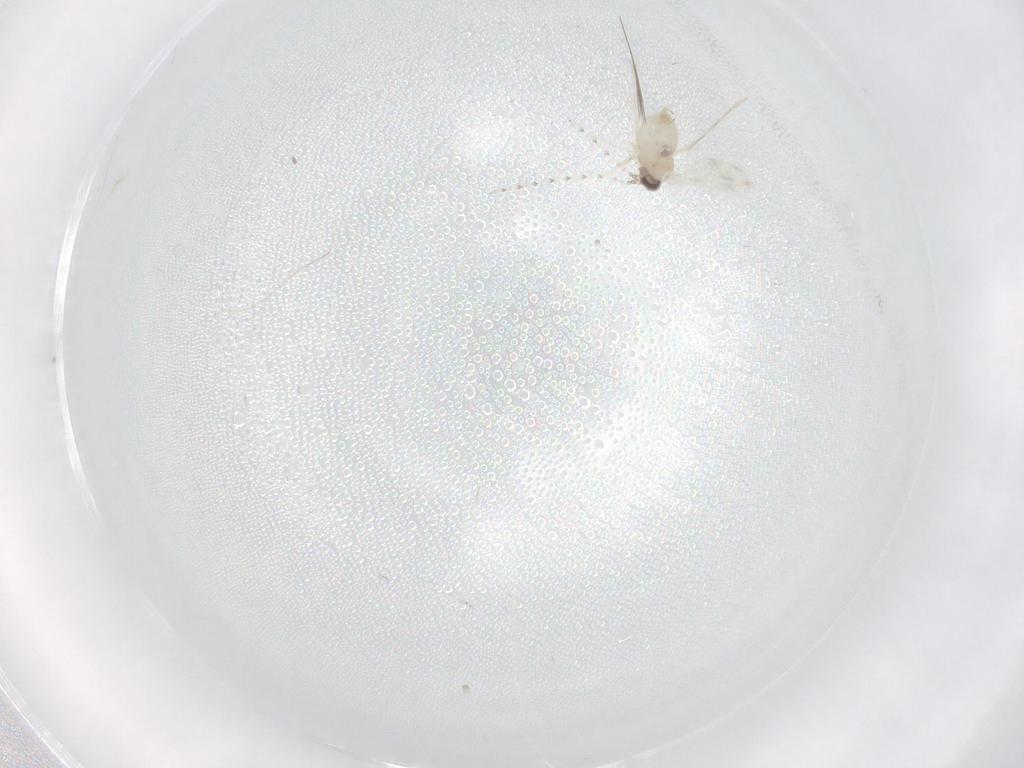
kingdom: Animalia
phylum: Arthropoda
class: Insecta
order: Diptera
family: Cecidomyiidae
